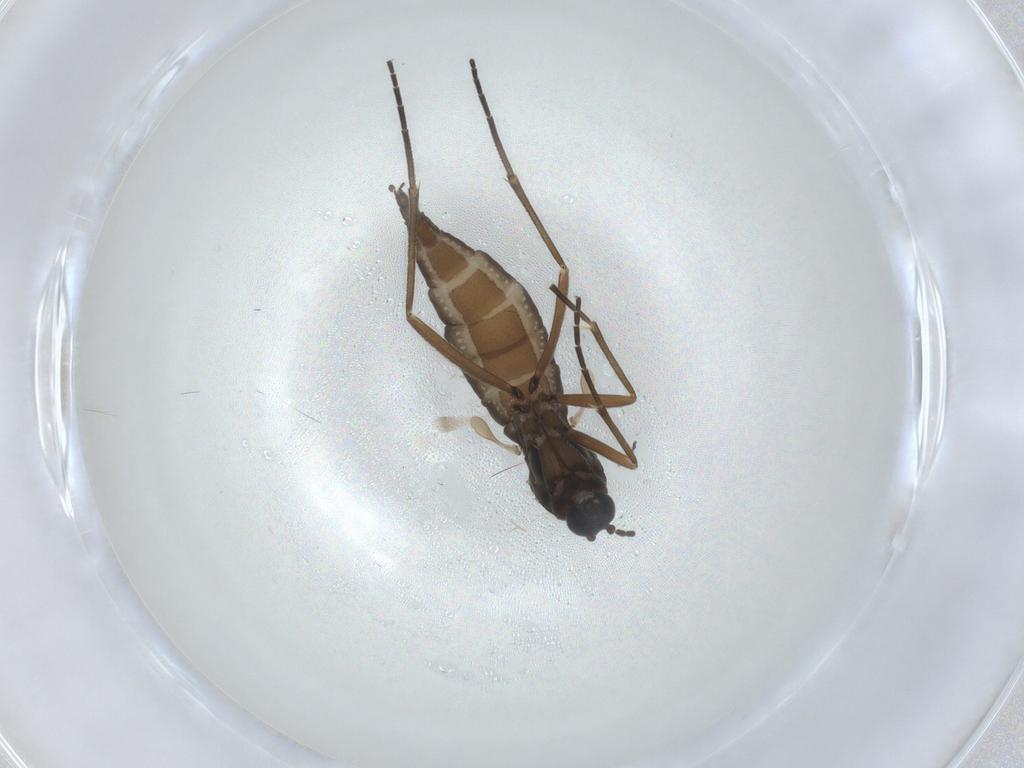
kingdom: Animalia
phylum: Arthropoda
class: Insecta
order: Diptera
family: Sciaridae
